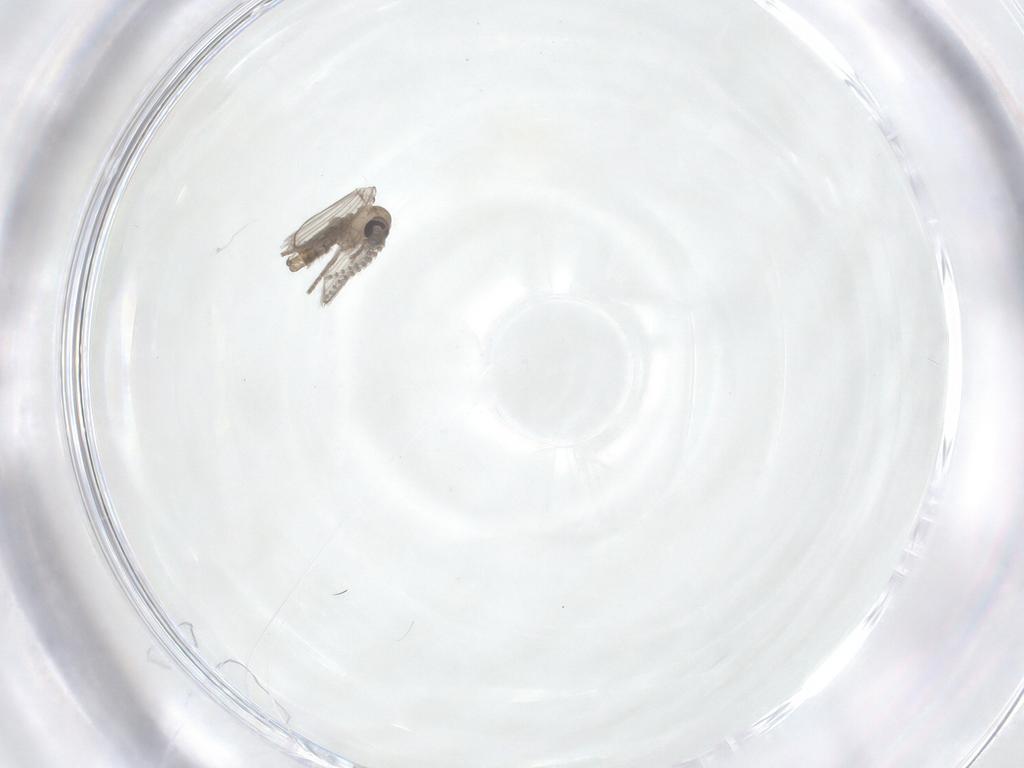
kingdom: Animalia
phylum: Arthropoda
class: Insecta
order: Diptera
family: Psychodidae
